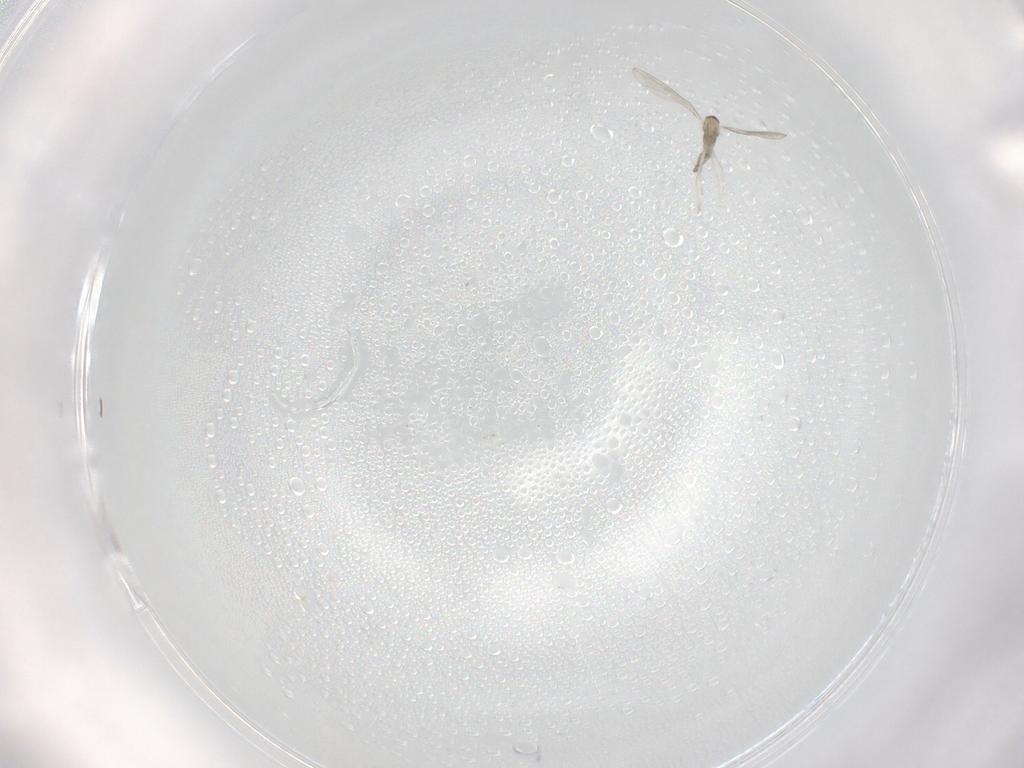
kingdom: Animalia
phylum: Arthropoda
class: Insecta
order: Diptera
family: Cecidomyiidae
